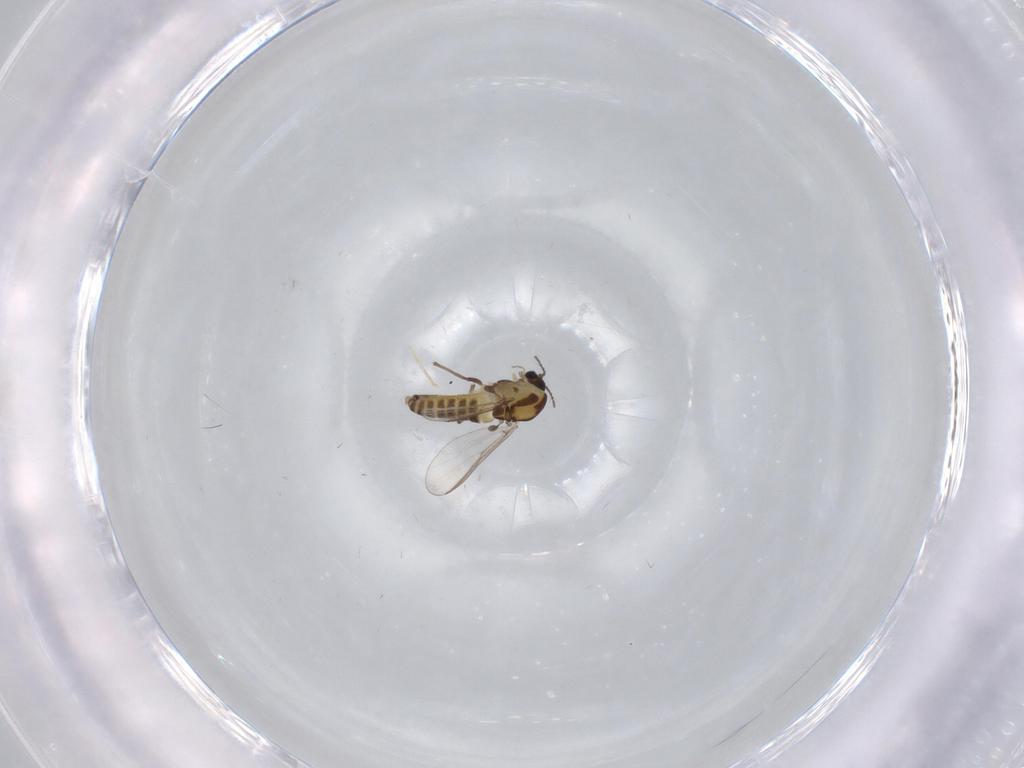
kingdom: Animalia
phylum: Arthropoda
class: Insecta
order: Diptera
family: Chironomidae
